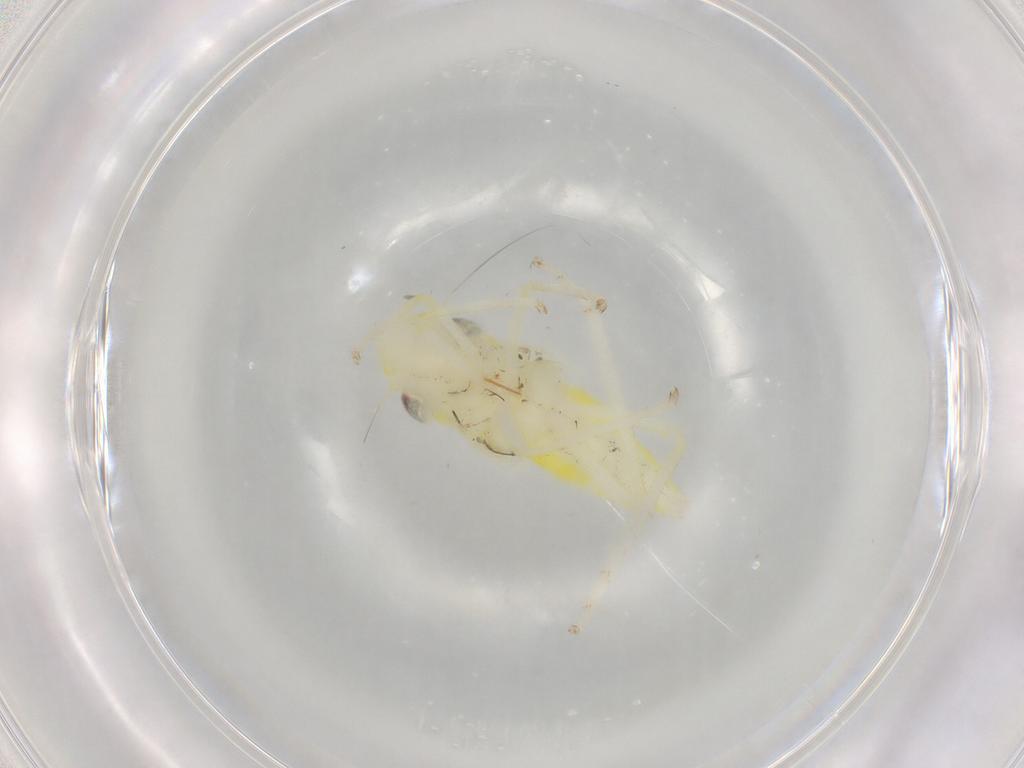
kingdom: Animalia
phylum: Arthropoda
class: Insecta
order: Hemiptera
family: Cicadellidae
